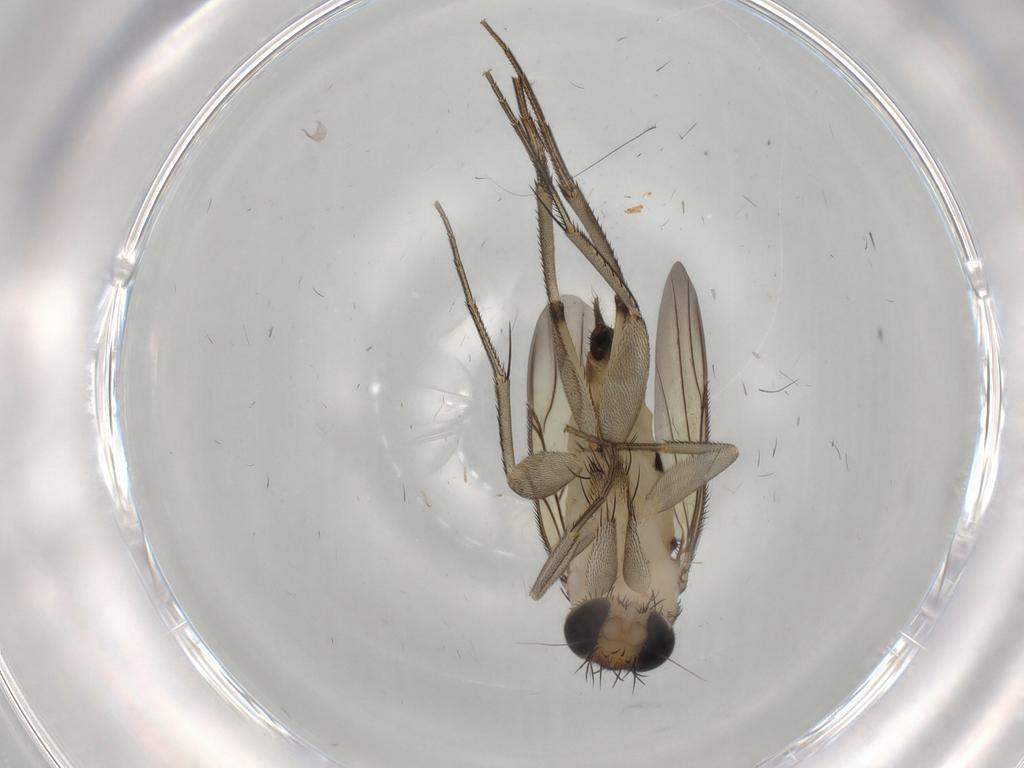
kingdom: Animalia
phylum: Arthropoda
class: Insecta
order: Diptera
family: Phoridae
